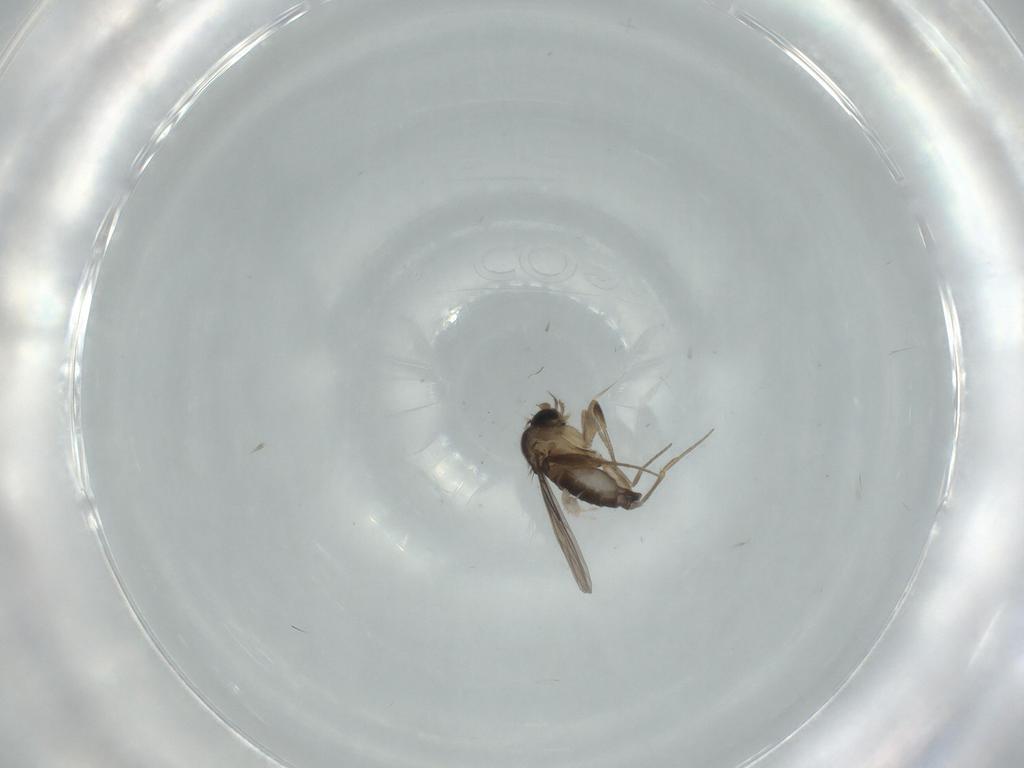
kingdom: Animalia
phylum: Arthropoda
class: Insecta
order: Diptera
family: Phoridae
